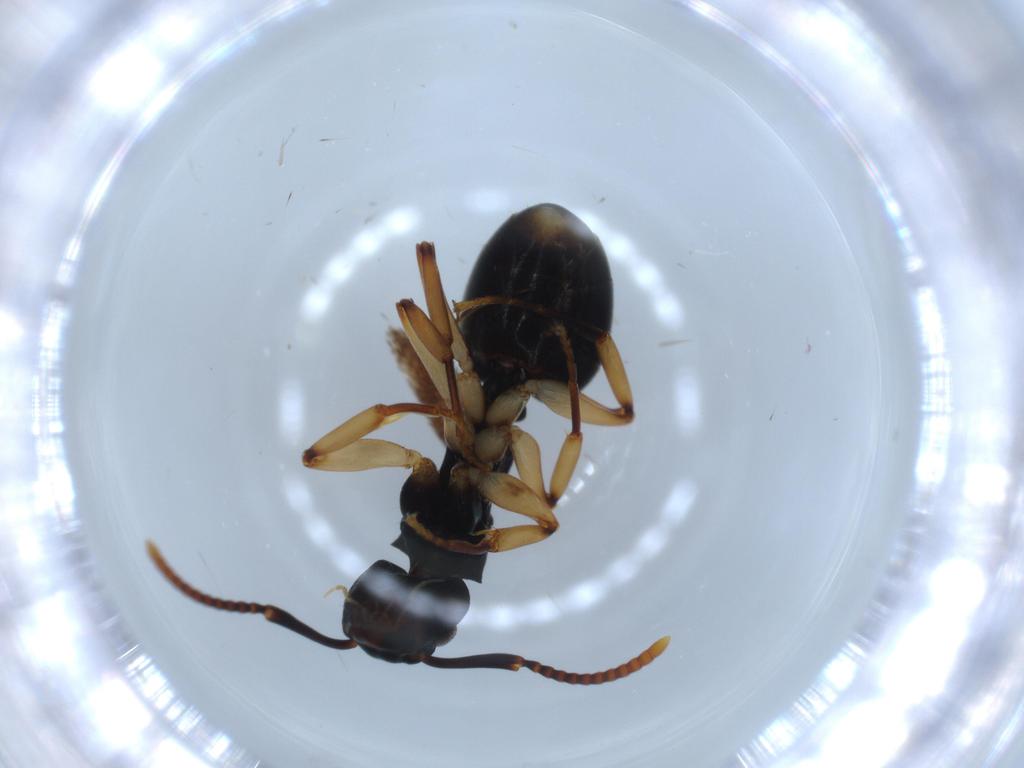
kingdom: Animalia
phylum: Arthropoda
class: Insecta
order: Hymenoptera
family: Formicidae
